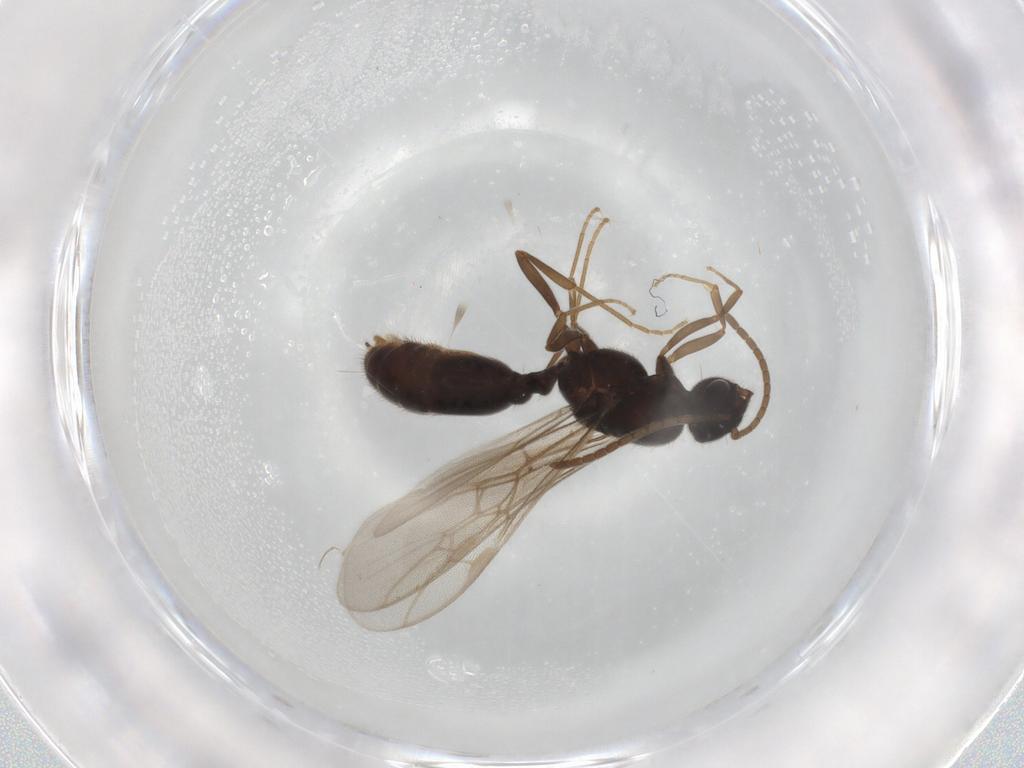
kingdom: Animalia
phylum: Arthropoda
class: Insecta
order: Hymenoptera
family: Formicidae
